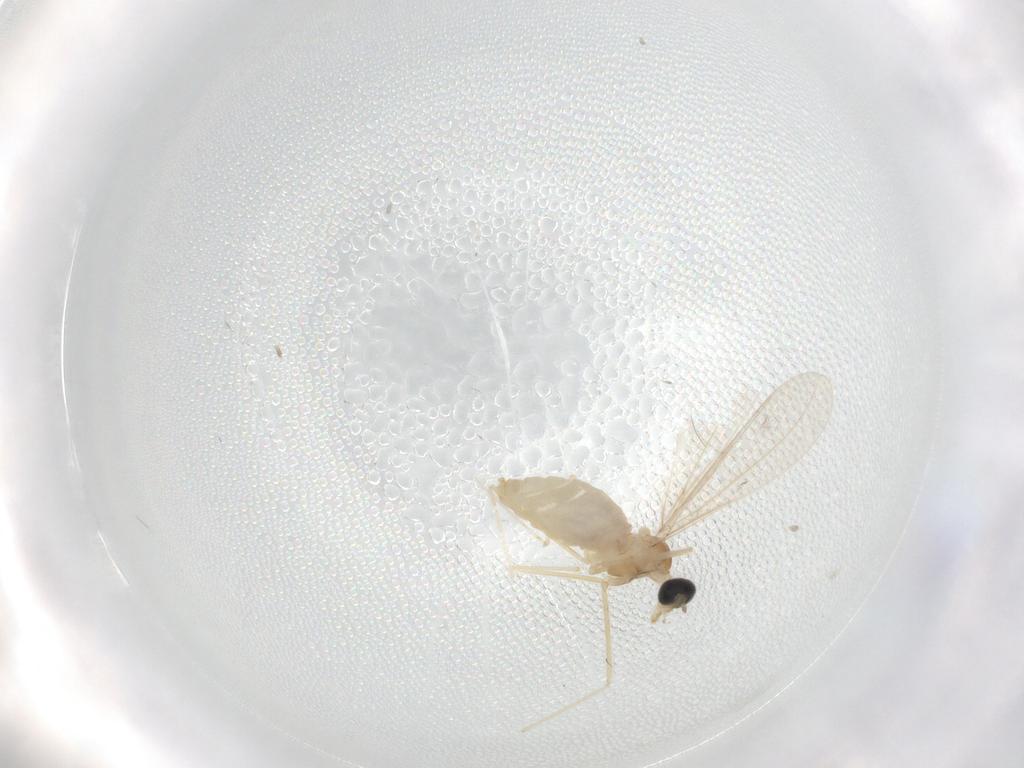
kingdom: Animalia
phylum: Arthropoda
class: Insecta
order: Diptera
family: Cecidomyiidae
